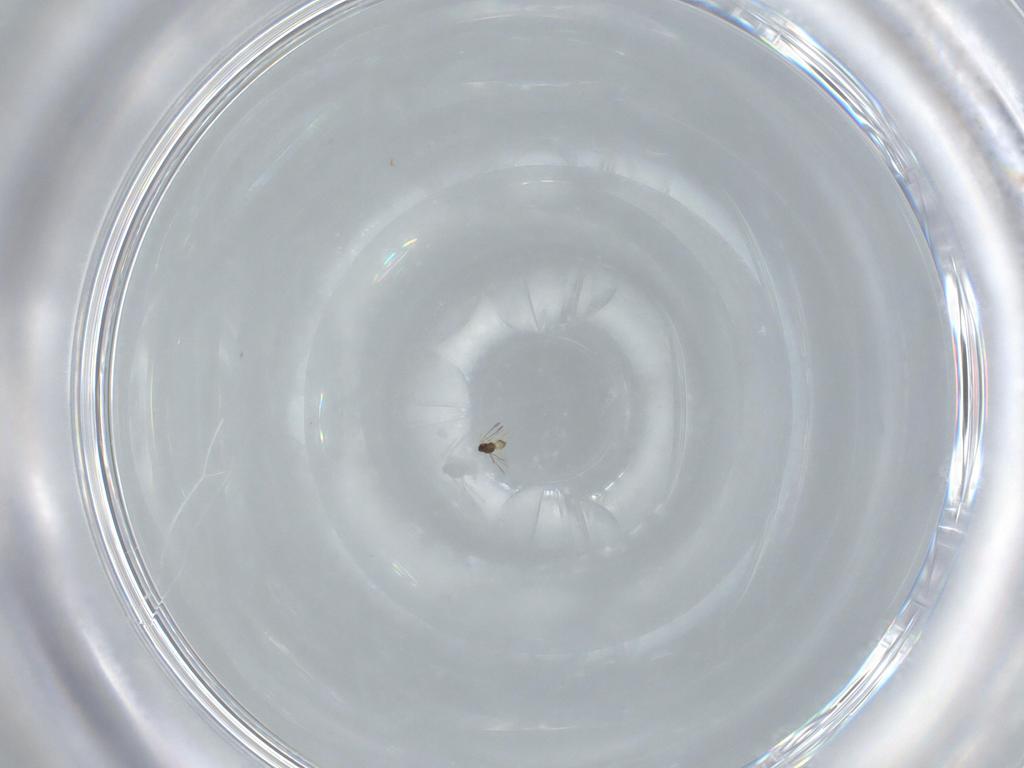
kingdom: Animalia
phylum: Arthropoda
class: Insecta
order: Hymenoptera
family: Mymaridae
